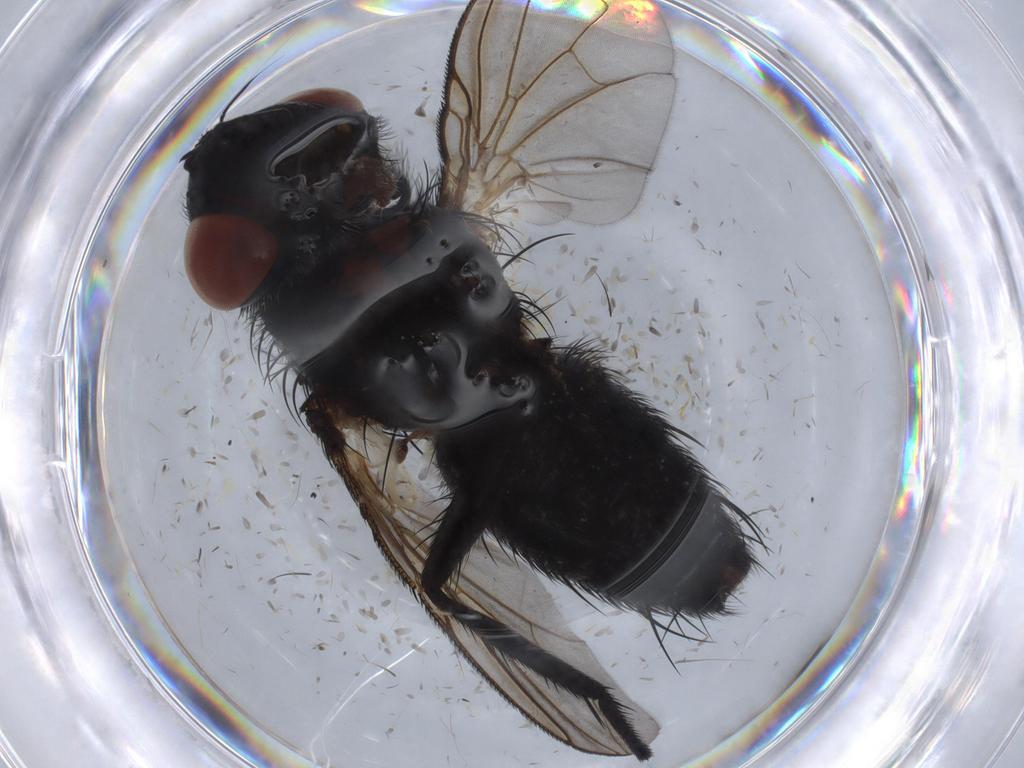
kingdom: Animalia
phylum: Arthropoda
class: Insecta
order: Diptera
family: Tachinidae
